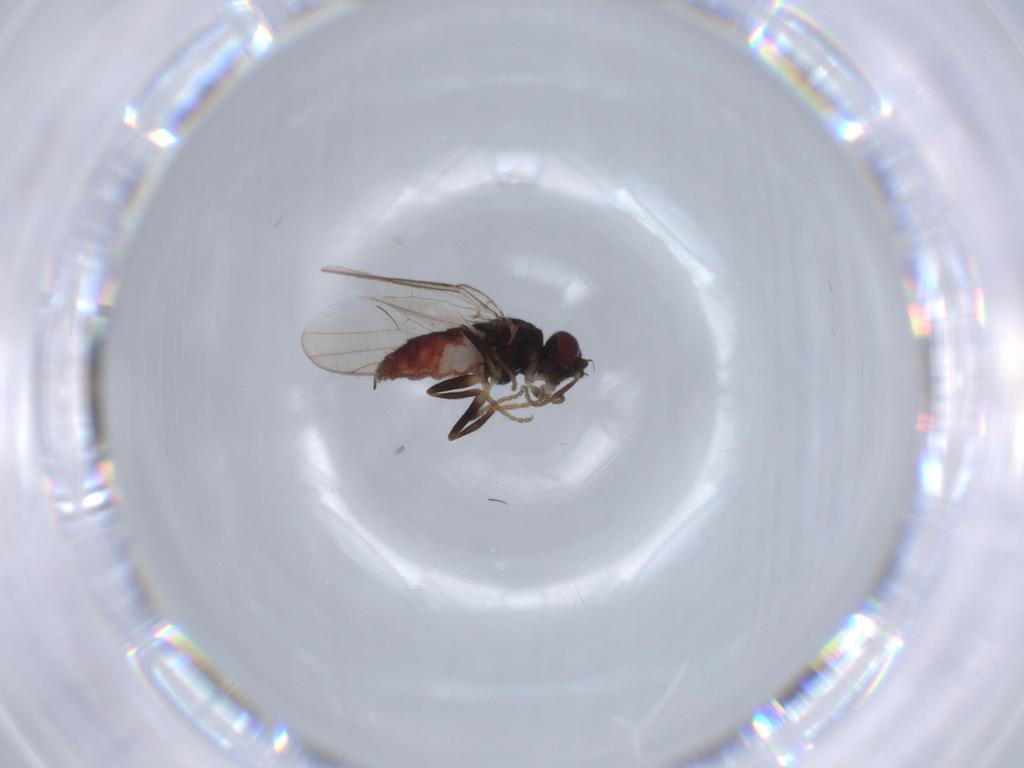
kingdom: Animalia
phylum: Arthropoda
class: Insecta
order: Diptera
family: Chloropidae
